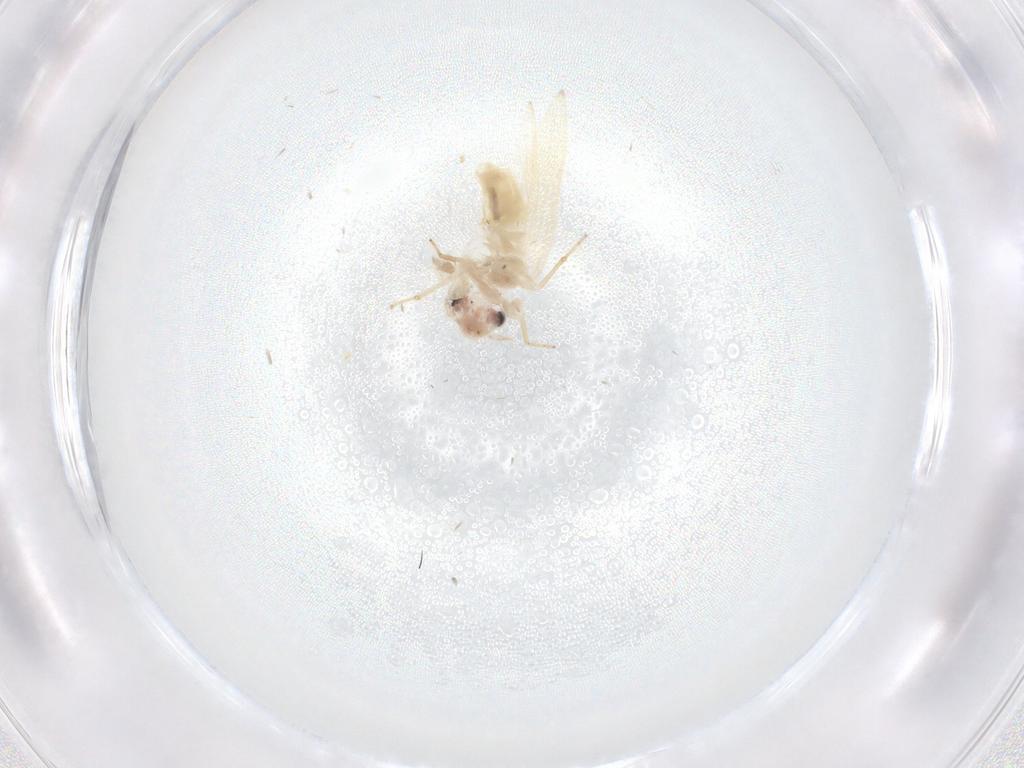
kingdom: Animalia
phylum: Arthropoda
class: Insecta
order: Psocodea
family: Lepidopsocidae
